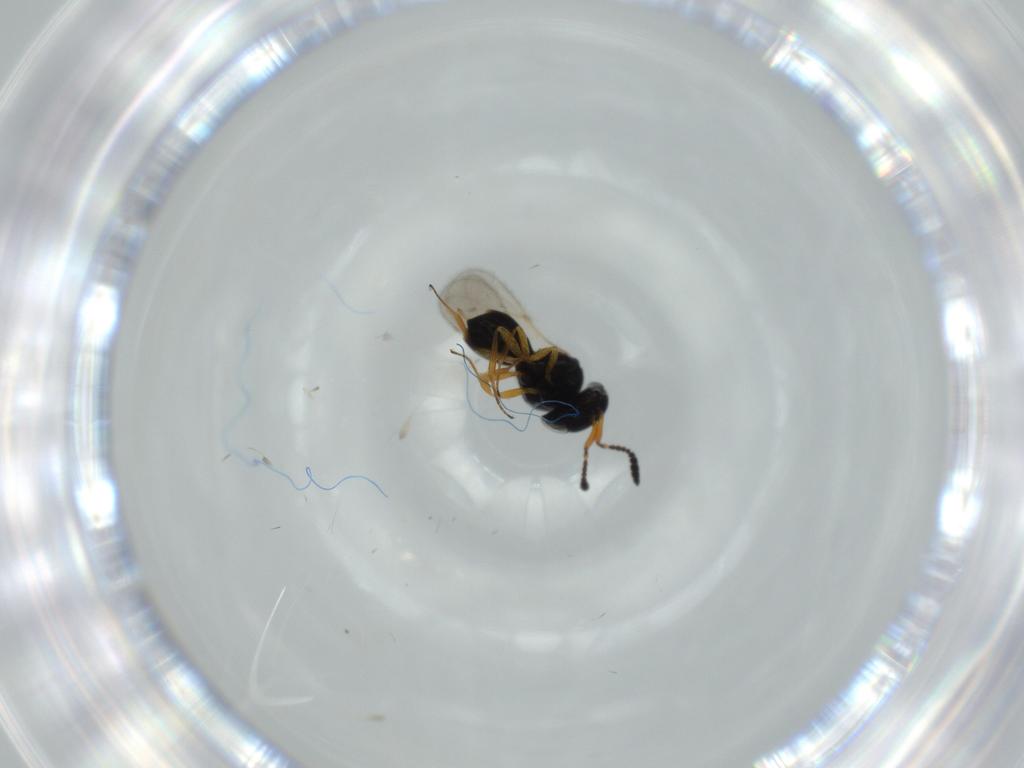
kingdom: Animalia
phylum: Arthropoda
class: Insecta
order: Hymenoptera
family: Scelionidae
